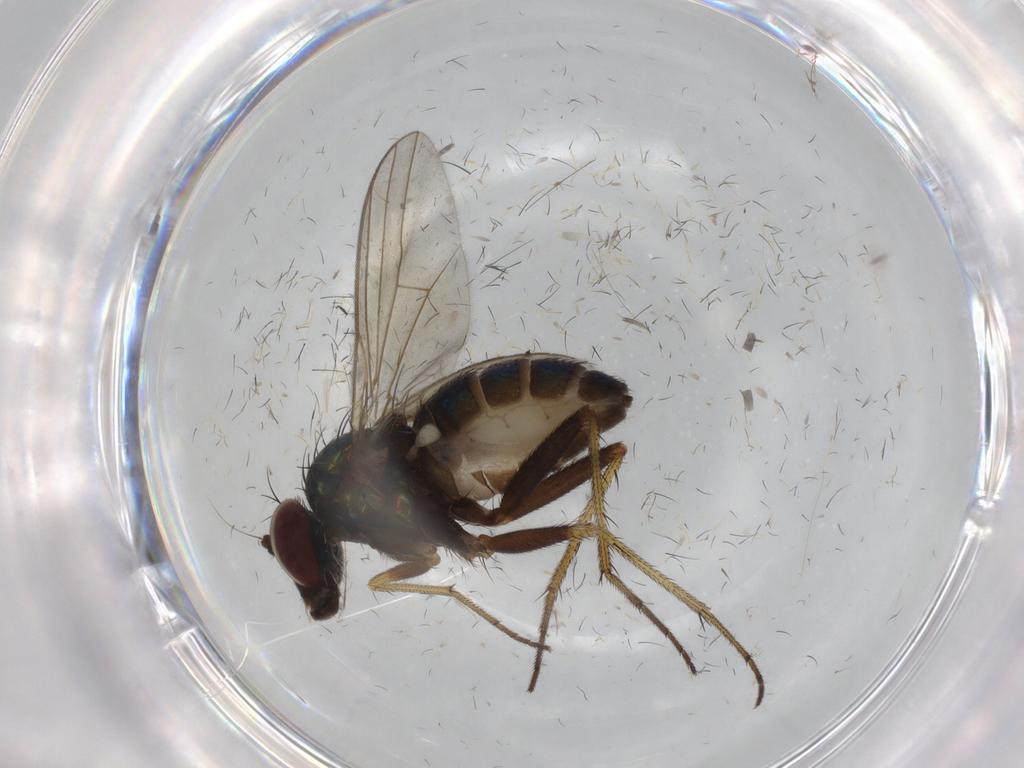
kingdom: Animalia
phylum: Arthropoda
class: Insecta
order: Diptera
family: Dolichopodidae
